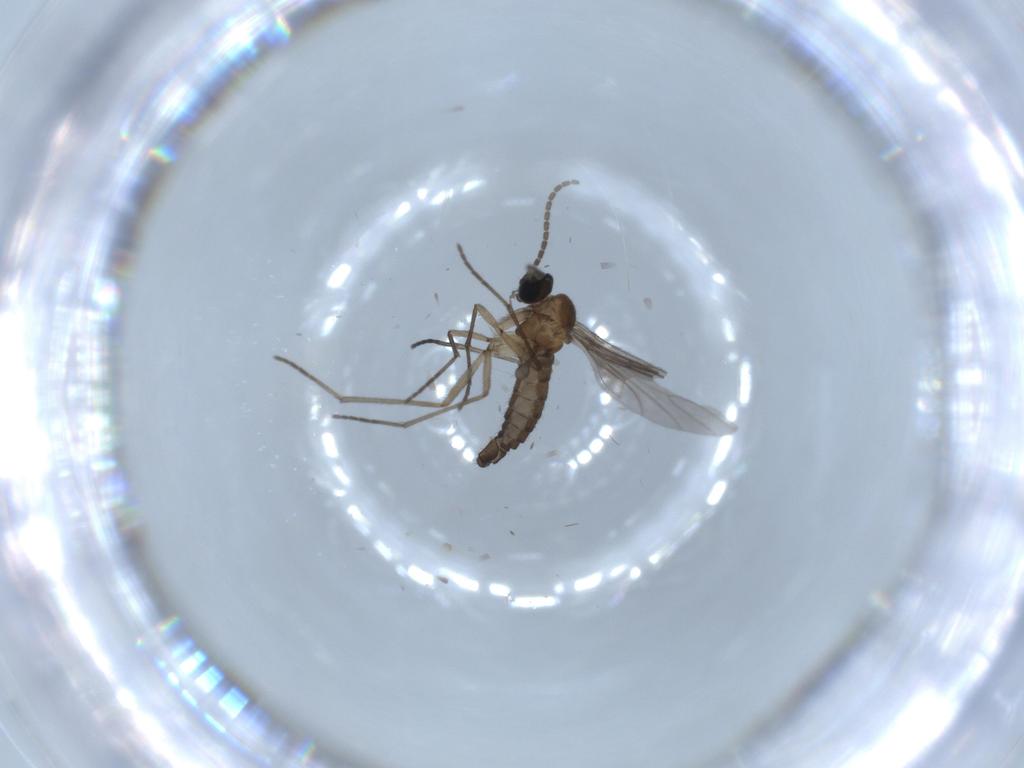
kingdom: Animalia
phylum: Arthropoda
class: Insecta
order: Diptera
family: Sciaridae
